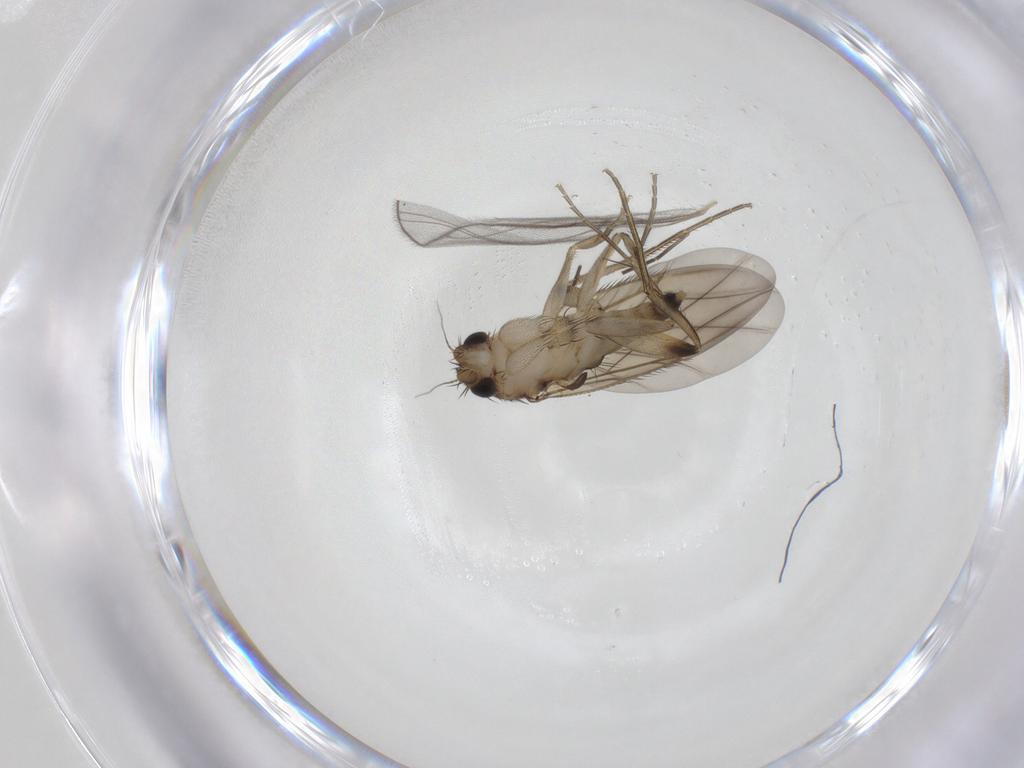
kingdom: Animalia
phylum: Arthropoda
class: Insecta
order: Diptera
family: Phoridae
